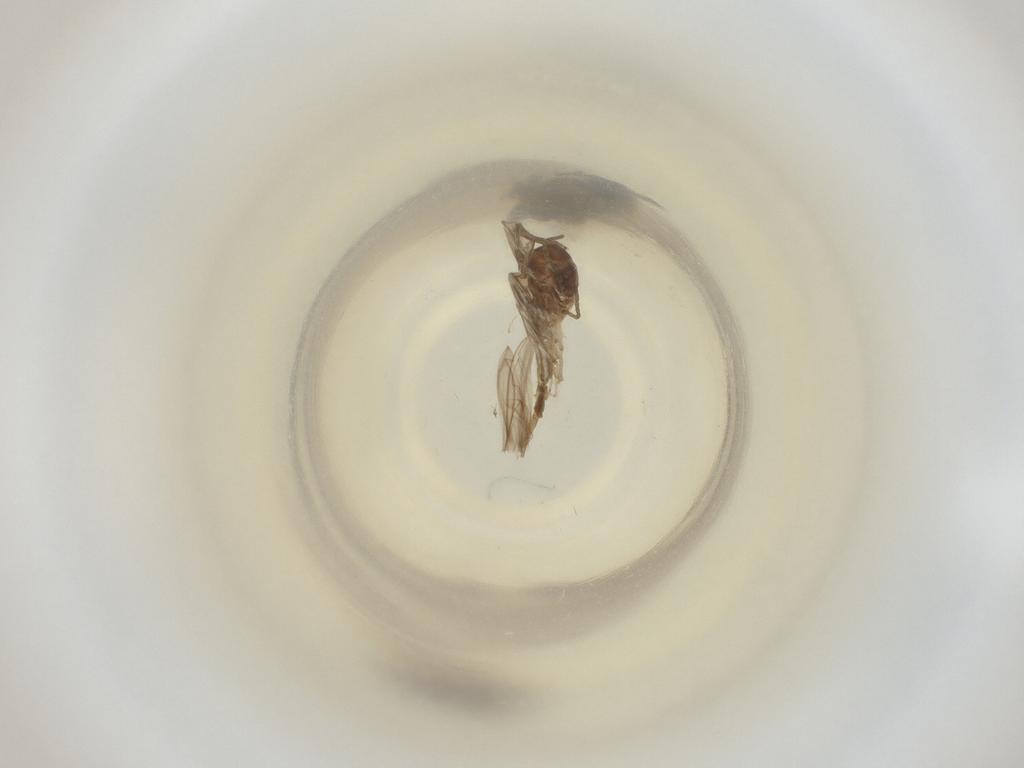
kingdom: Animalia
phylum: Arthropoda
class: Insecta
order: Diptera
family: Cecidomyiidae
